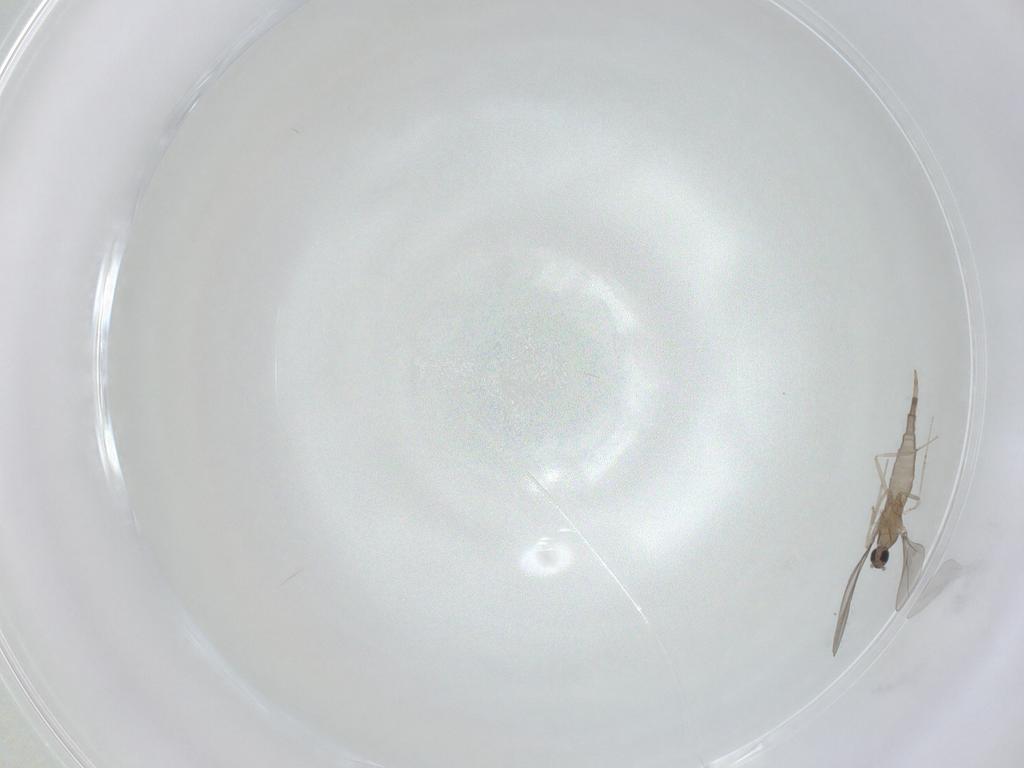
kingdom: Animalia
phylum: Arthropoda
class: Insecta
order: Diptera
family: Cecidomyiidae
